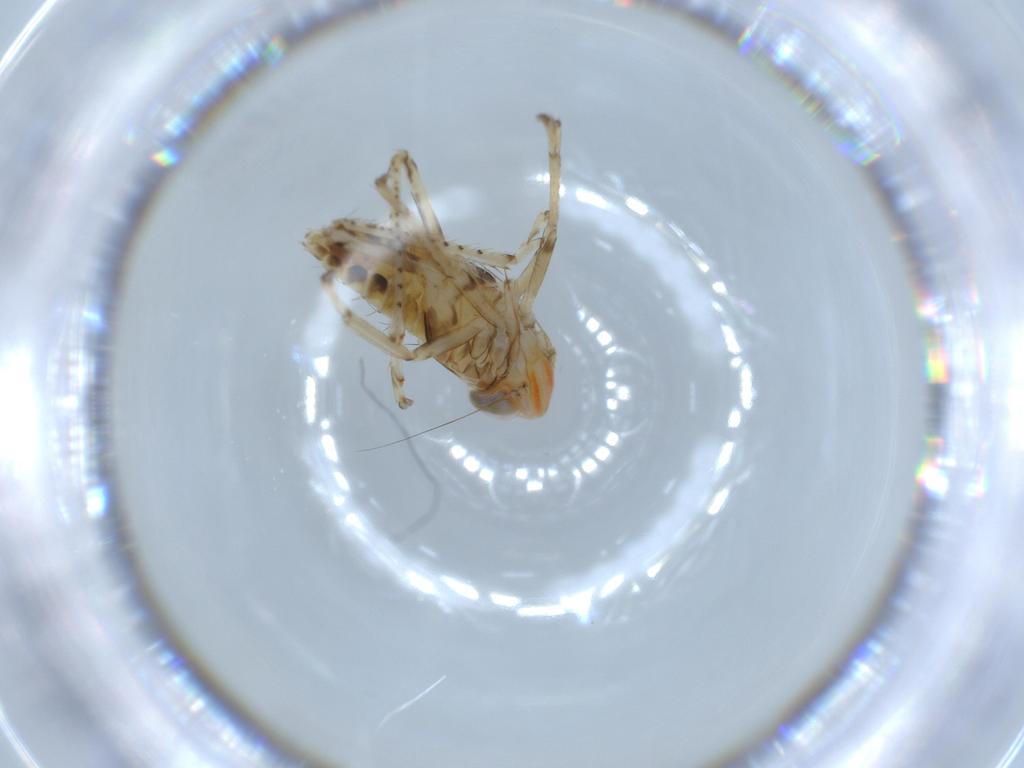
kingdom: Animalia
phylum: Arthropoda
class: Insecta
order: Hemiptera
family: Cicadellidae
